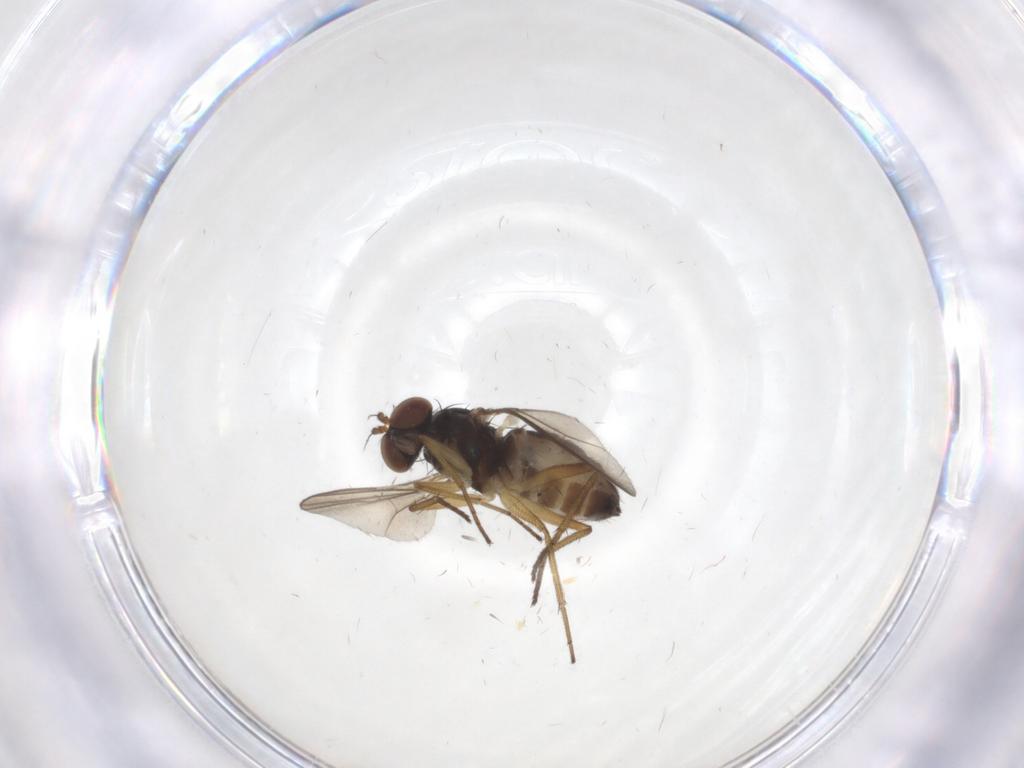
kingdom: Animalia
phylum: Arthropoda
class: Insecta
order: Diptera
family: Dolichopodidae
